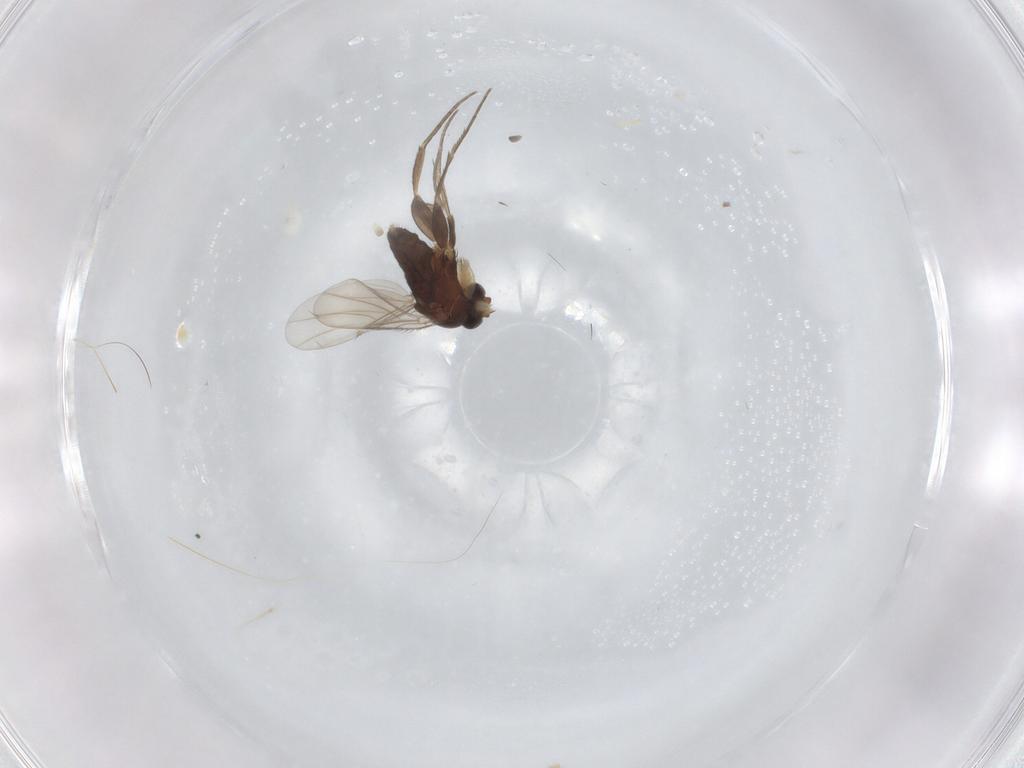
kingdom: Animalia
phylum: Arthropoda
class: Insecta
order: Diptera
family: Phoridae
